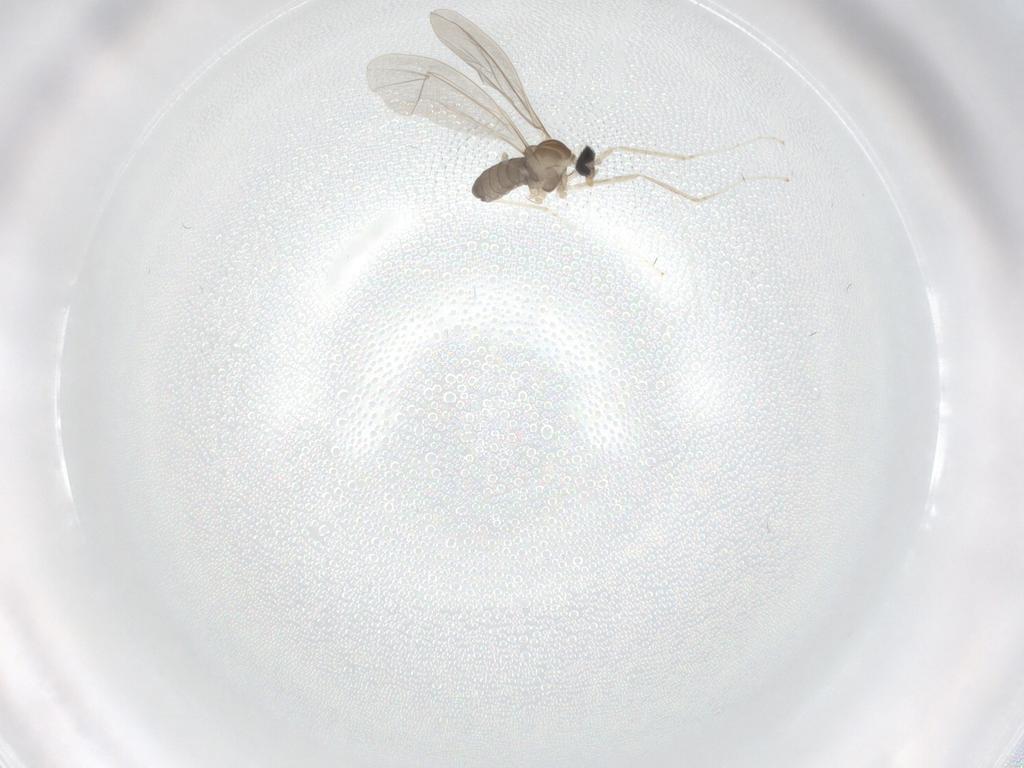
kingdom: Animalia
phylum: Arthropoda
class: Insecta
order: Diptera
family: Cecidomyiidae
